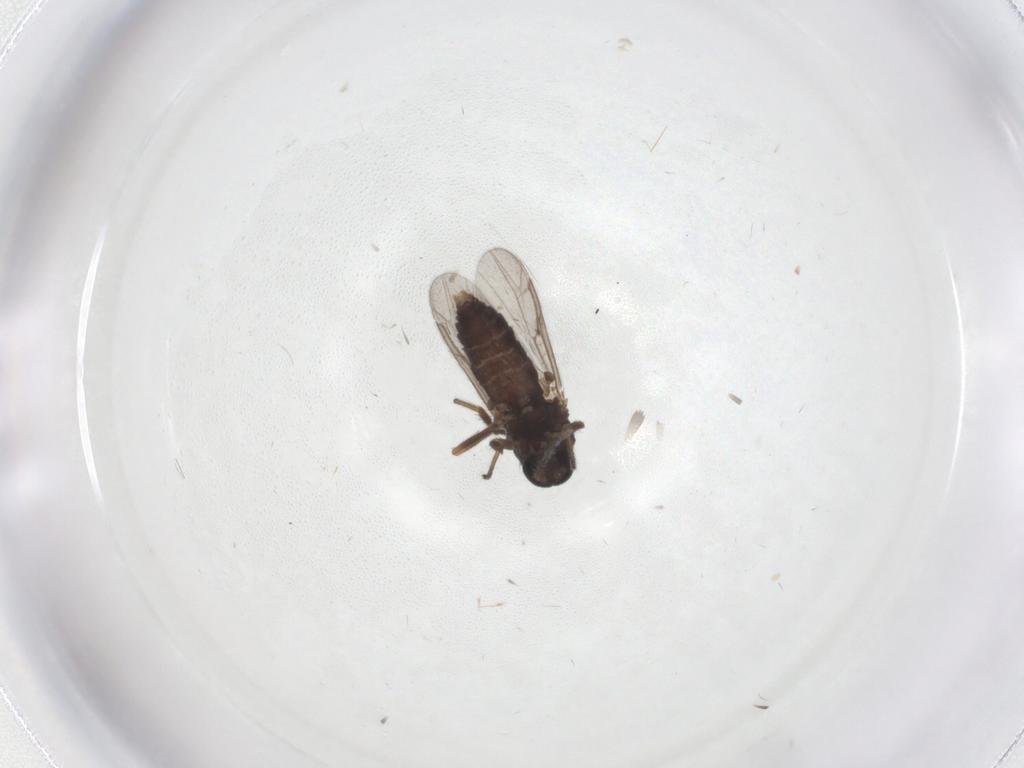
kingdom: Animalia
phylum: Arthropoda
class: Insecta
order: Diptera
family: Ceratopogonidae
